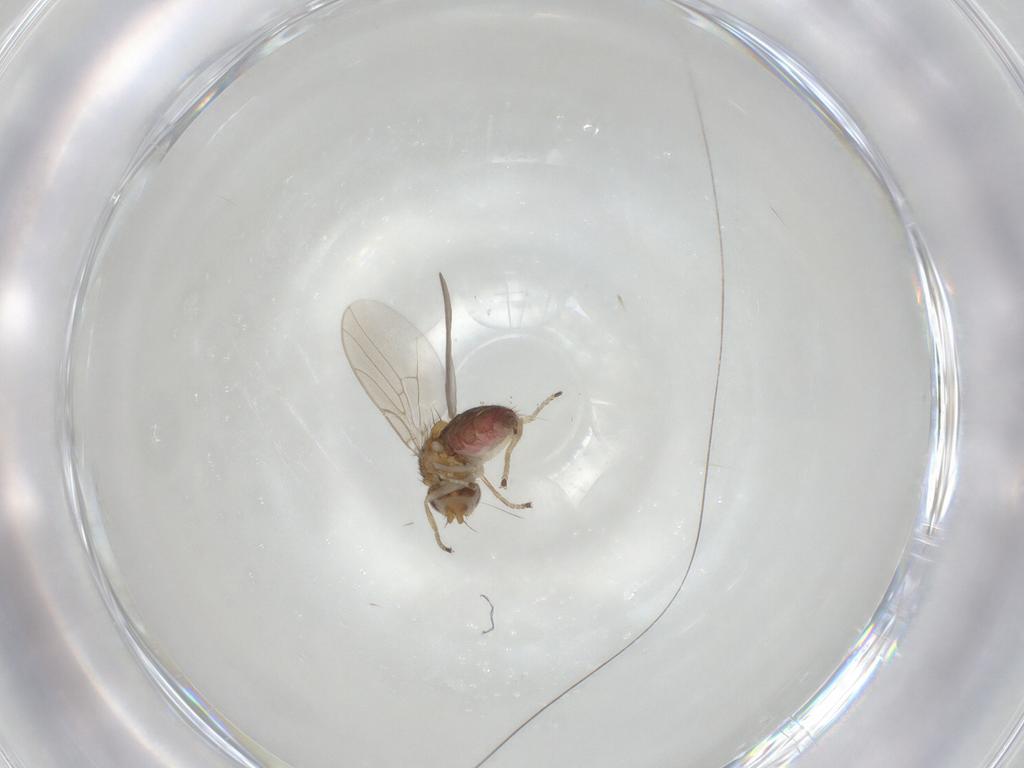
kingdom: Animalia
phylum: Arthropoda
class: Insecta
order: Diptera
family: Chloropidae
